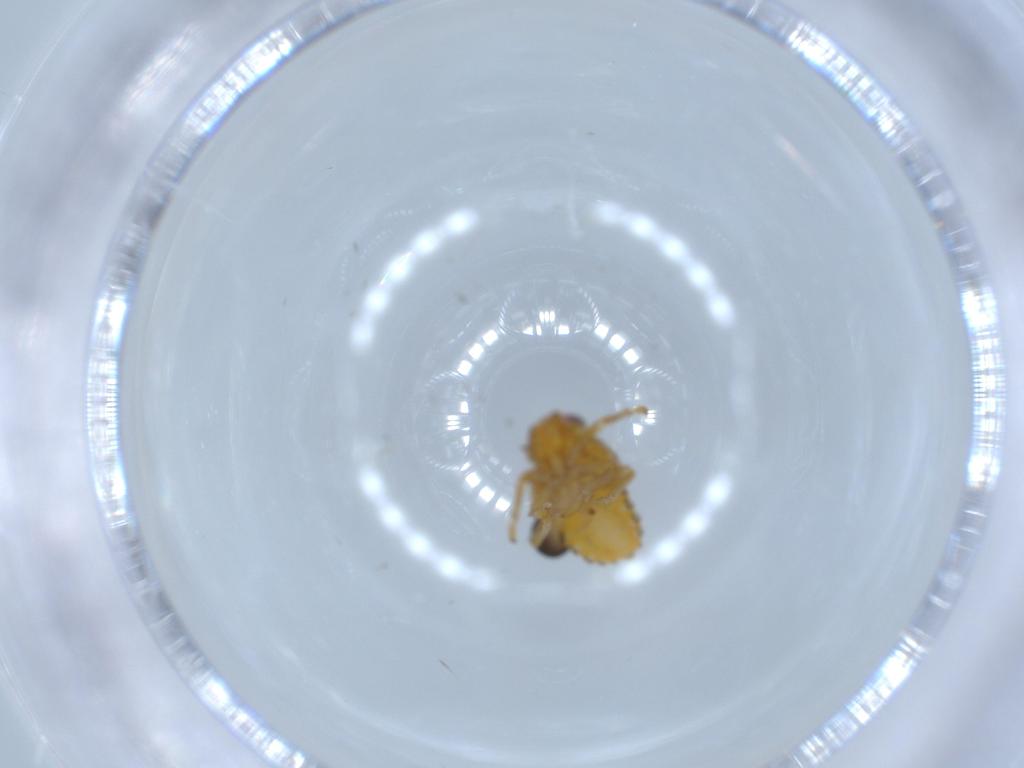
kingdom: Animalia
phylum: Arthropoda
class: Insecta
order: Hemiptera
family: Issidae
